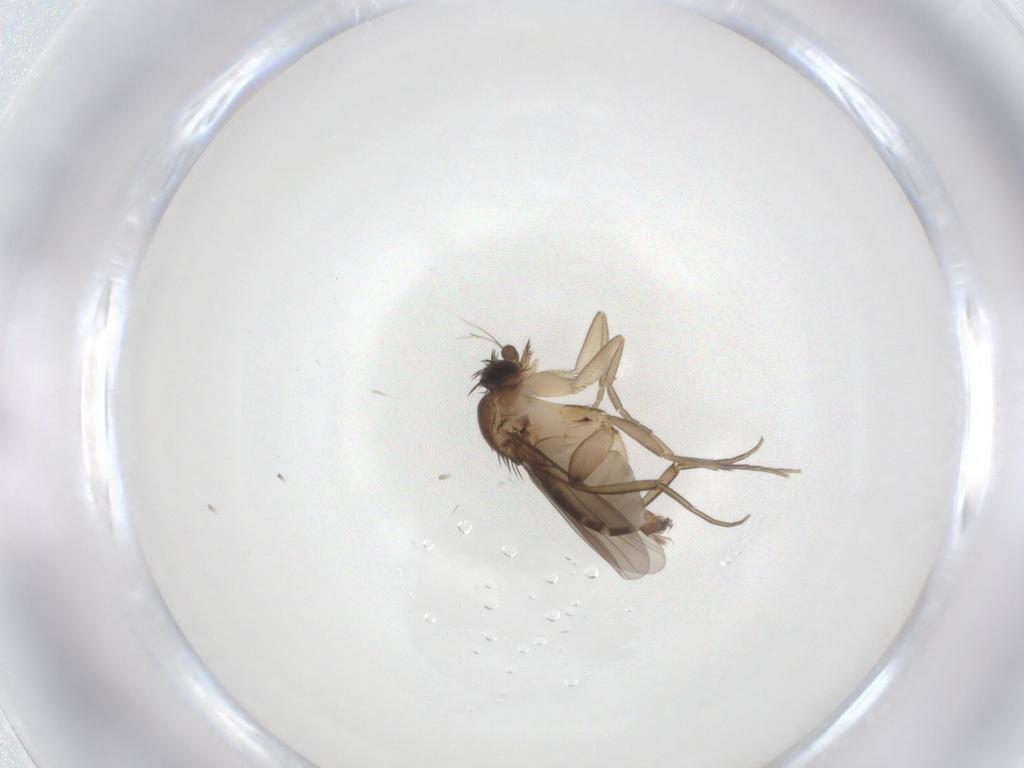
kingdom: Animalia
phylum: Arthropoda
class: Insecta
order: Diptera
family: Phoridae
